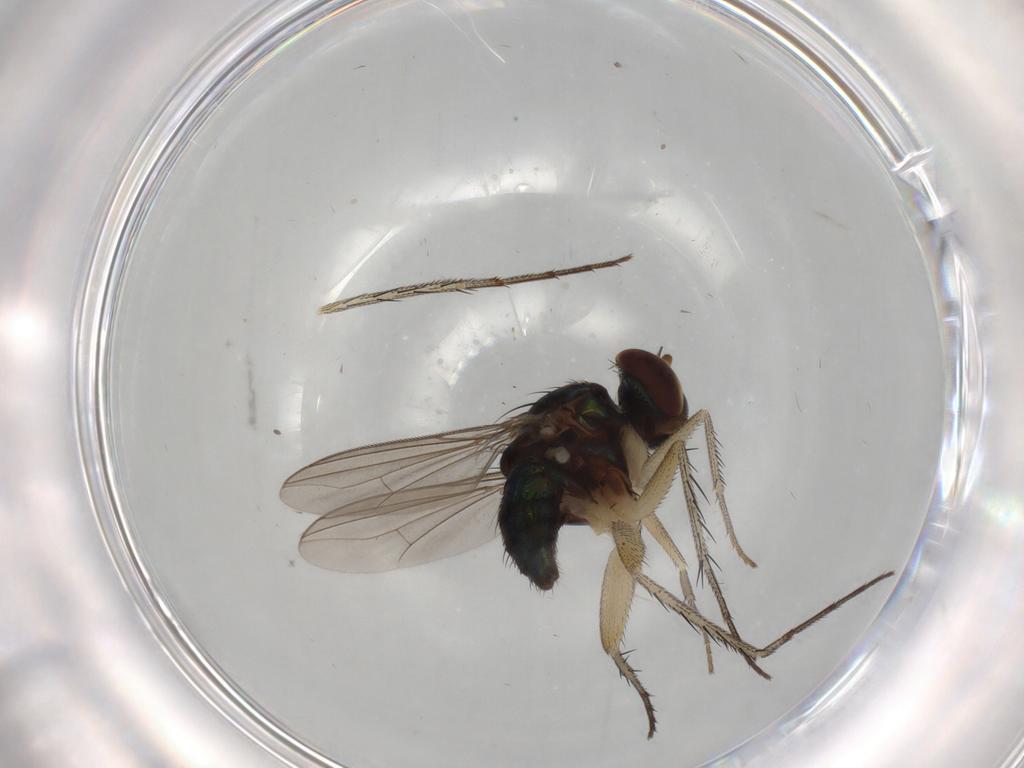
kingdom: Animalia
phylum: Arthropoda
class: Insecta
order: Diptera
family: Dolichopodidae
